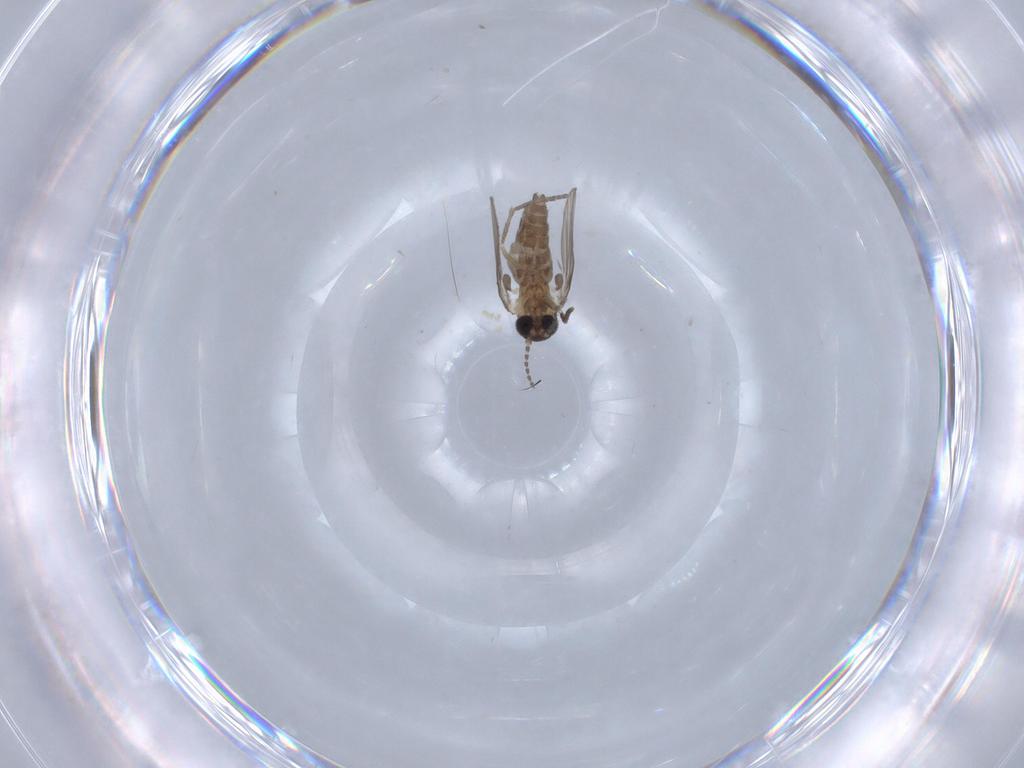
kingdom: Animalia
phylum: Arthropoda
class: Insecta
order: Diptera
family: Psychodidae
